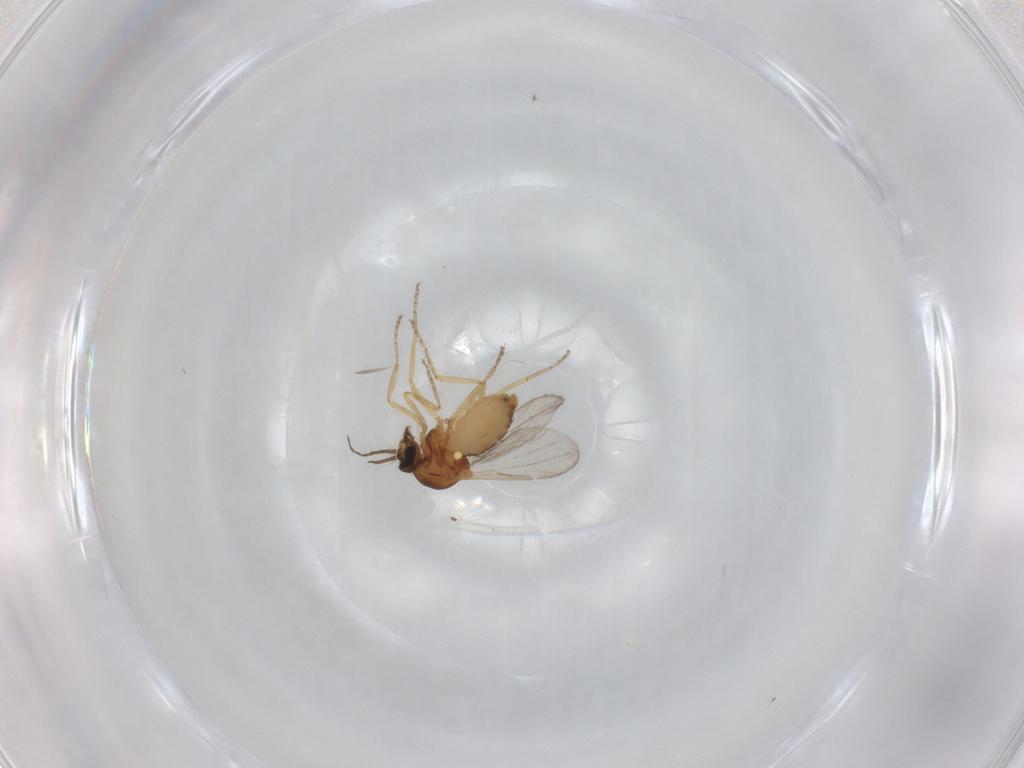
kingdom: Animalia
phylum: Arthropoda
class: Insecta
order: Diptera
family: Ceratopogonidae
